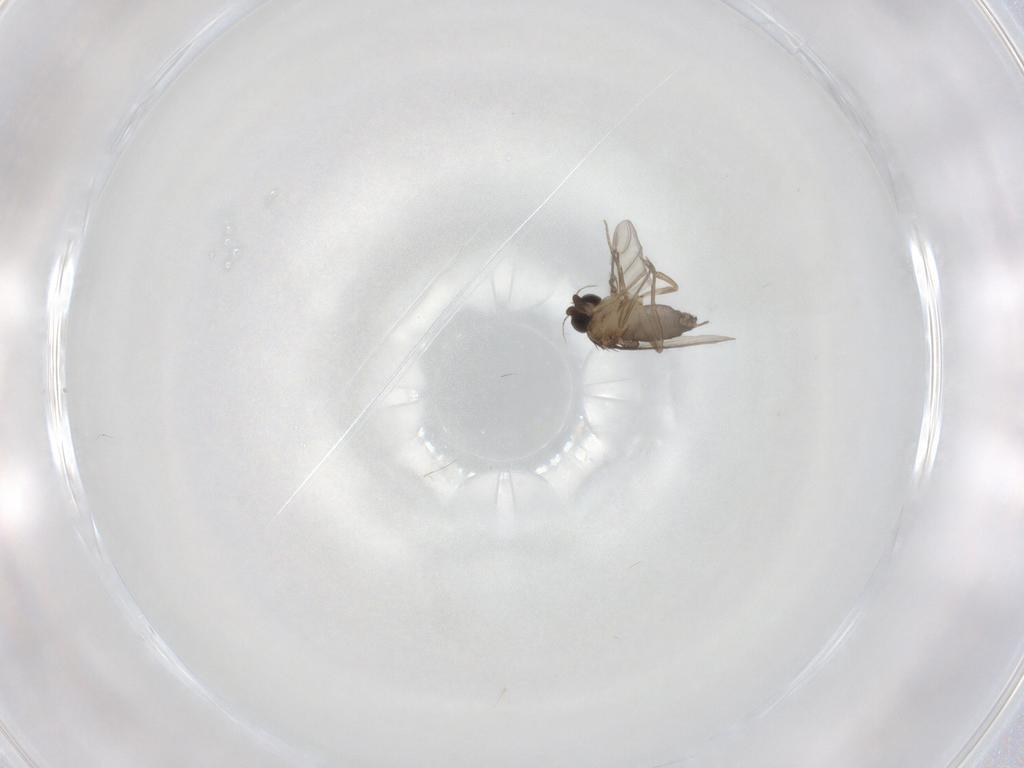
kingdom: Animalia
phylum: Arthropoda
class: Insecta
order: Diptera
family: Phoridae
